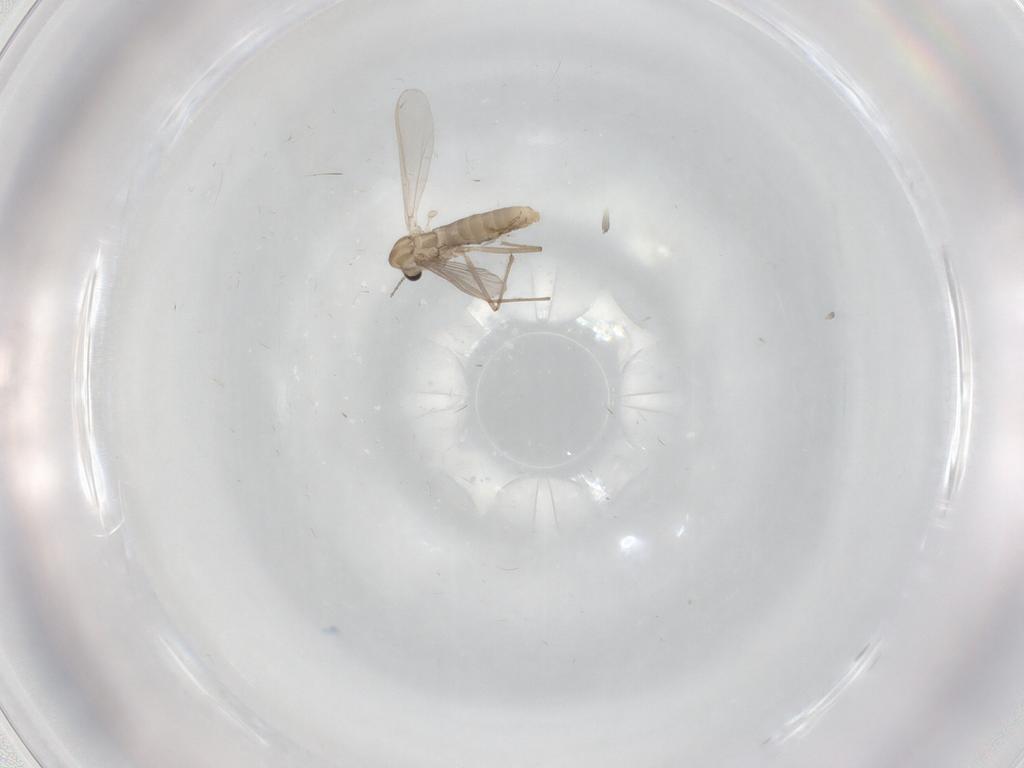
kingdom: Animalia
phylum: Arthropoda
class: Insecta
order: Diptera
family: Chironomidae
